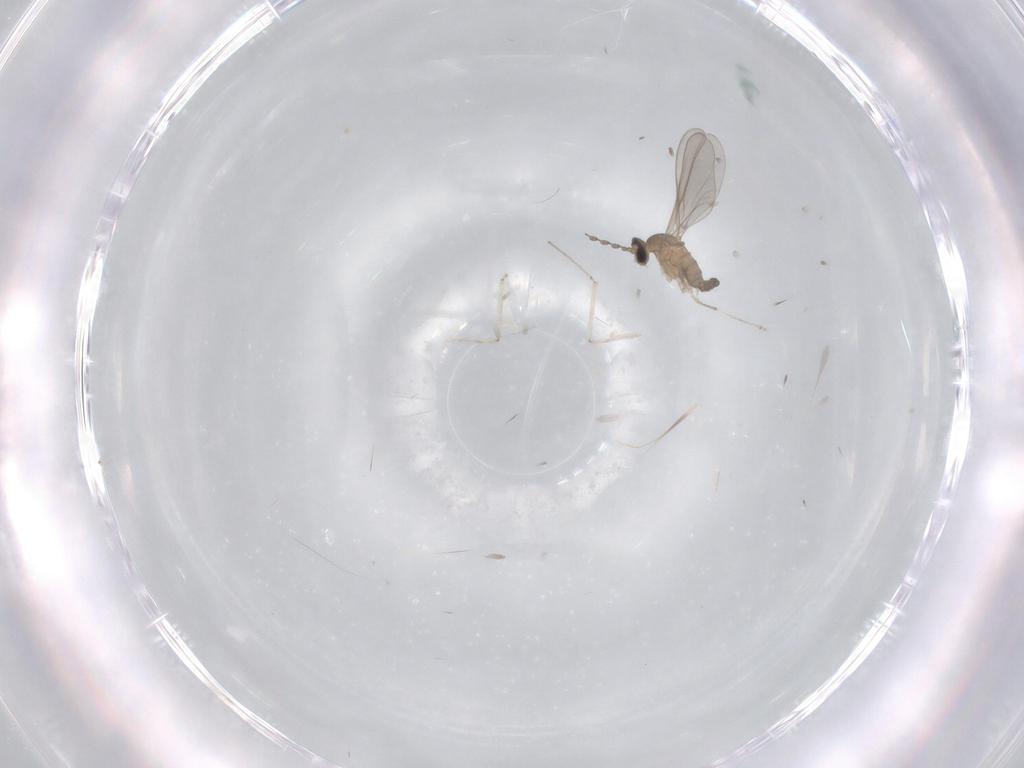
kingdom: Animalia
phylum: Arthropoda
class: Insecta
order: Diptera
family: Cecidomyiidae
